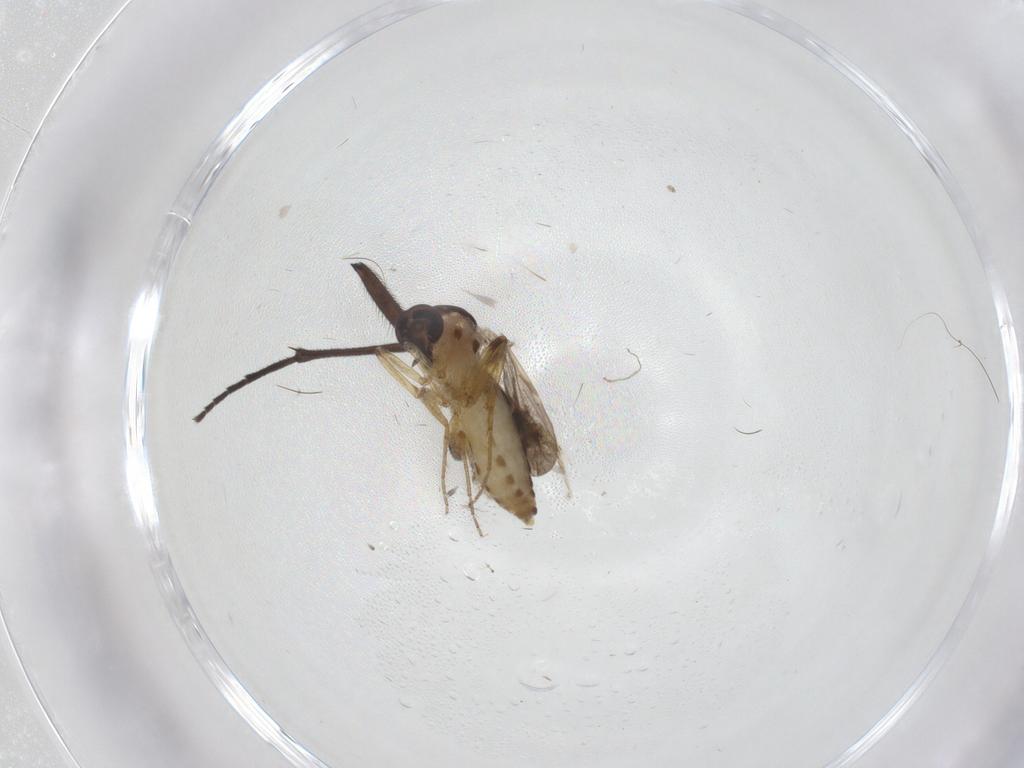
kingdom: Animalia
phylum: Arthropoda
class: Insecta
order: Diptera
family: Ceratopogonidae
